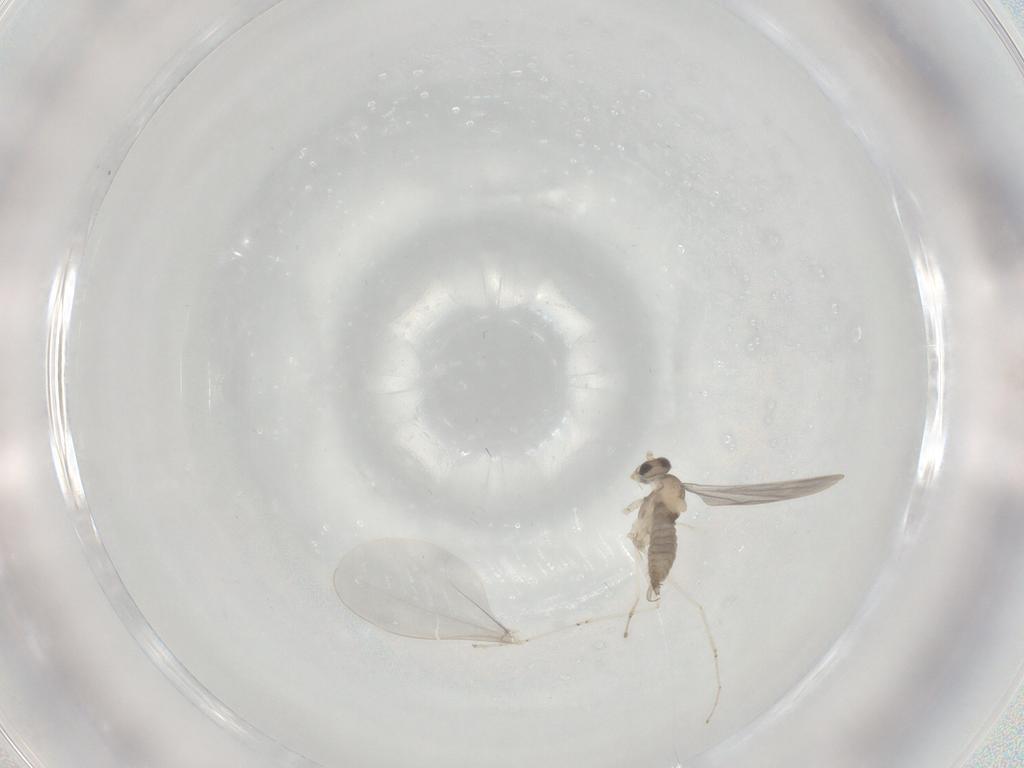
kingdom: Animalia
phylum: Arthropoda
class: Insecta
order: Diptera
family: Cecidomyiidae
